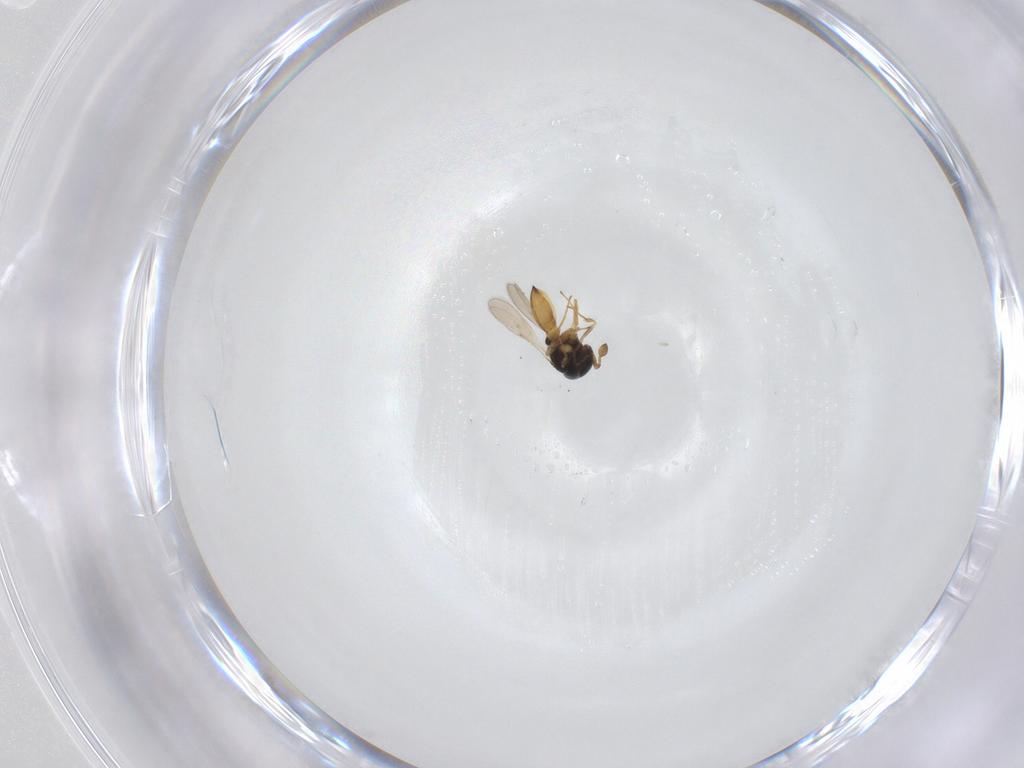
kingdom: Animalia
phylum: Arthropoda
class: Insecta
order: Hymenoptera
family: Scelionidae
